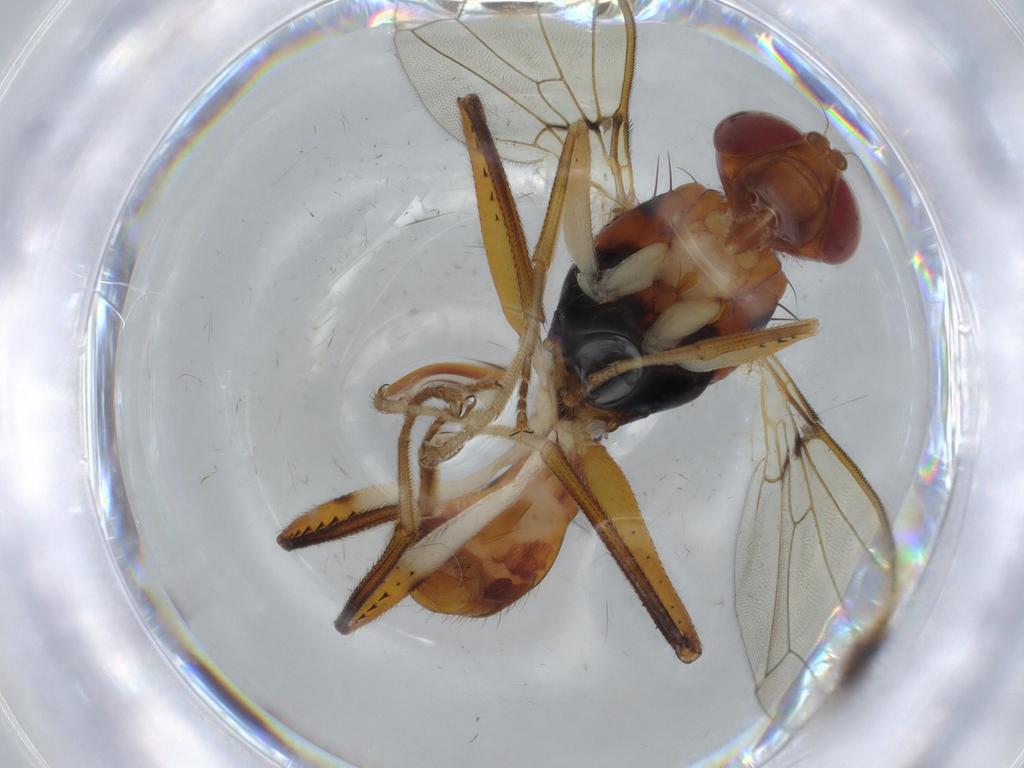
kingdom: Animalia
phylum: Arthropoda
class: Insecta
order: Diptera
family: Richardiidae
